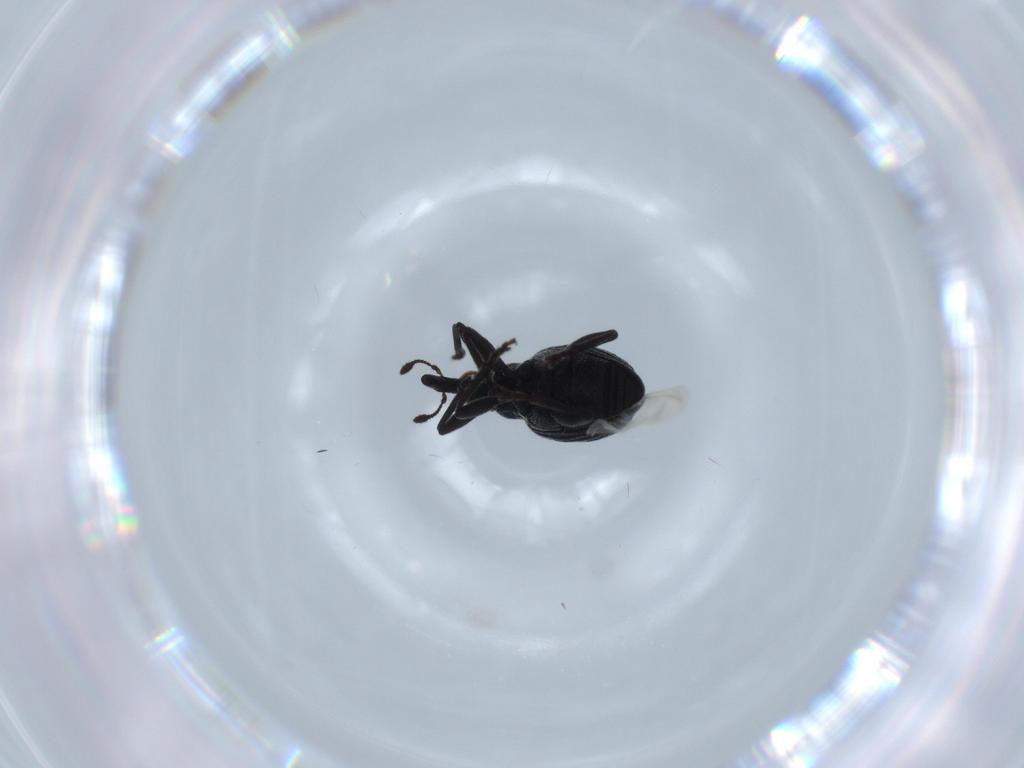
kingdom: Animalia
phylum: Arthropoda
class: Insecta
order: Coleoptera
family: Brentidae
